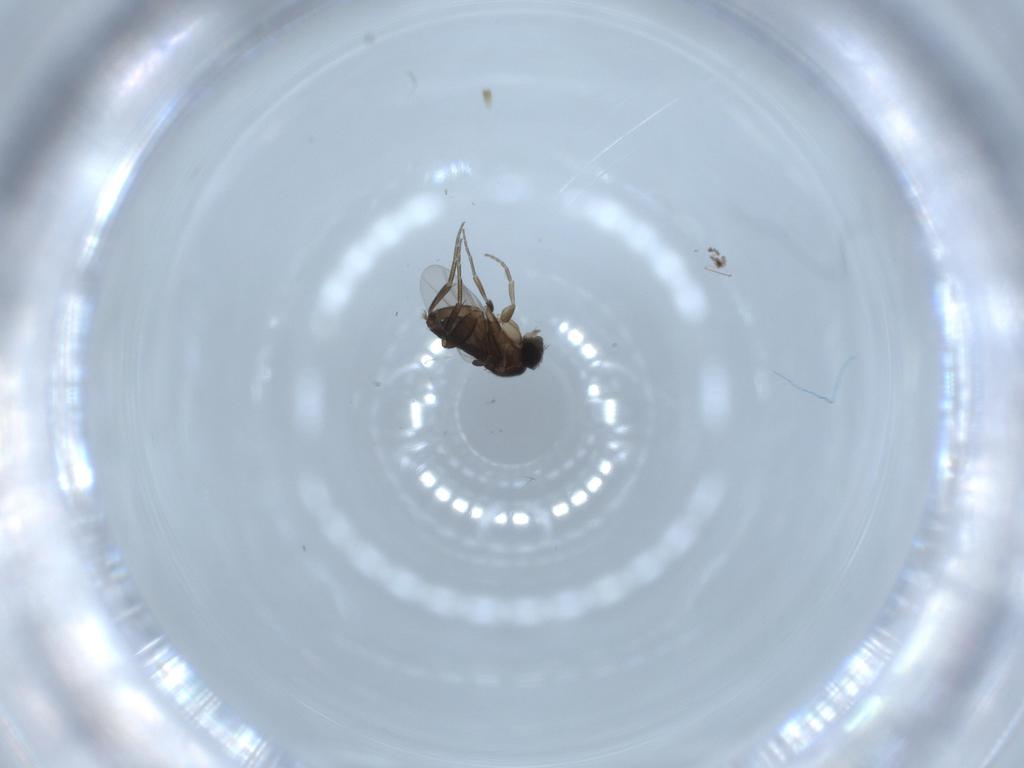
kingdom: Animalia
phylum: Arthropoda
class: Insecta
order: Diptera
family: Phoridae
